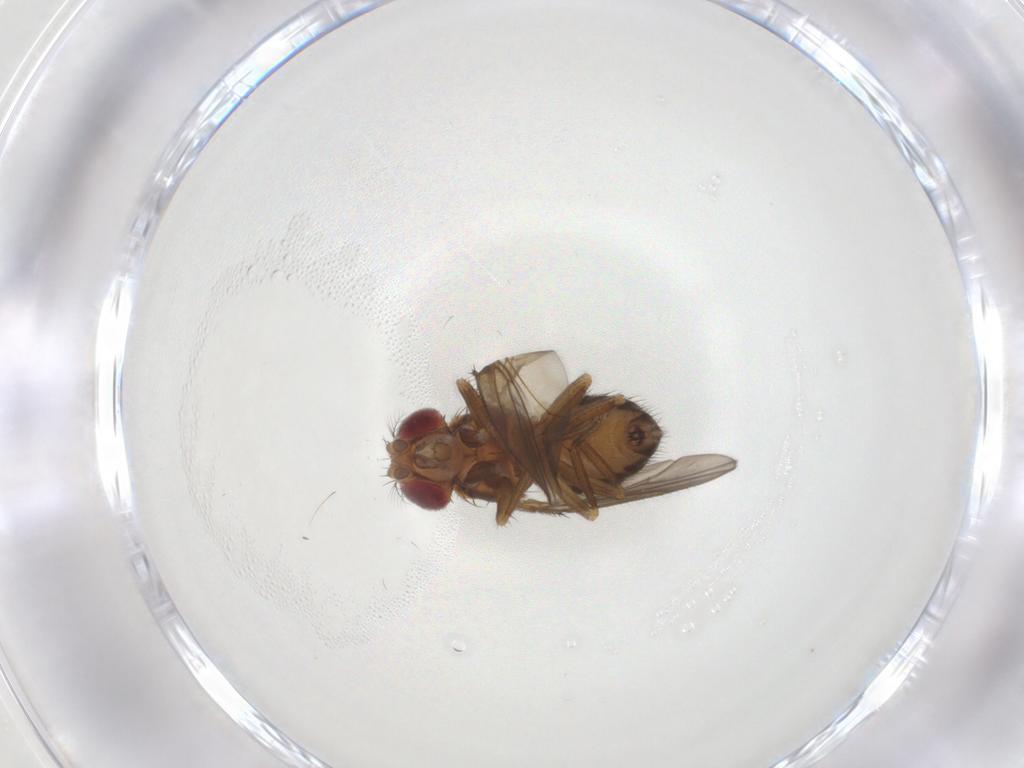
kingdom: Animalia
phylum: Arthropoda
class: Insecta
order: Diptera
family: Drosophilidae
